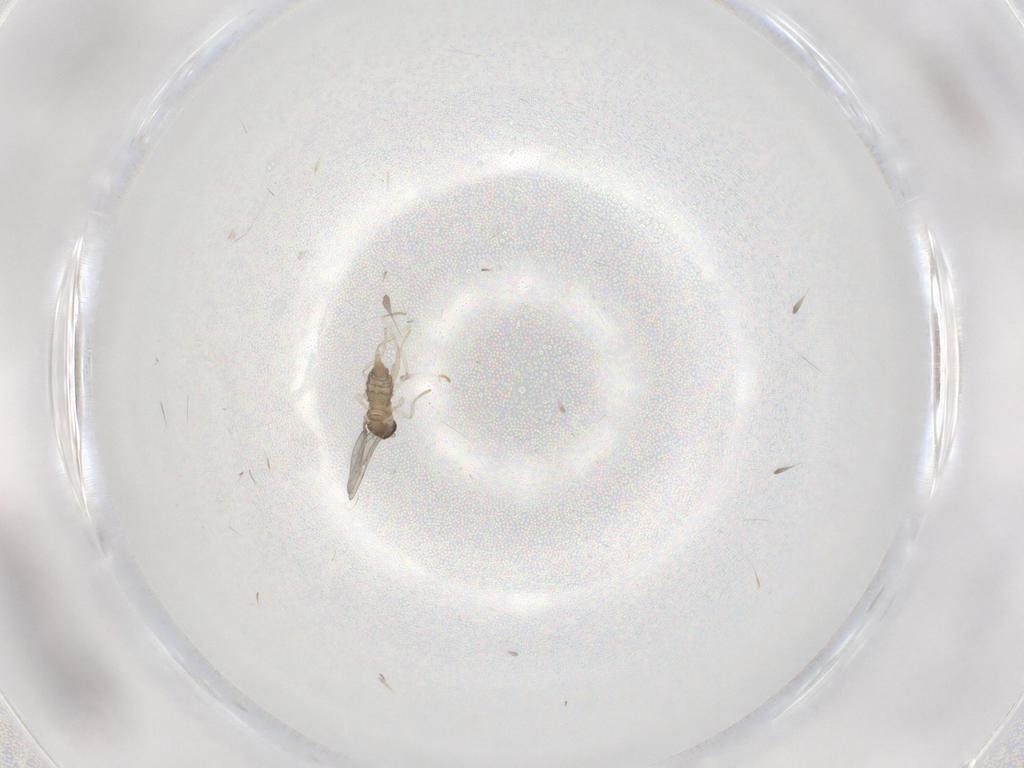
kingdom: Animalia
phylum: Arthropoda
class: Insecta
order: Diptera
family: Cecidomyiidae
